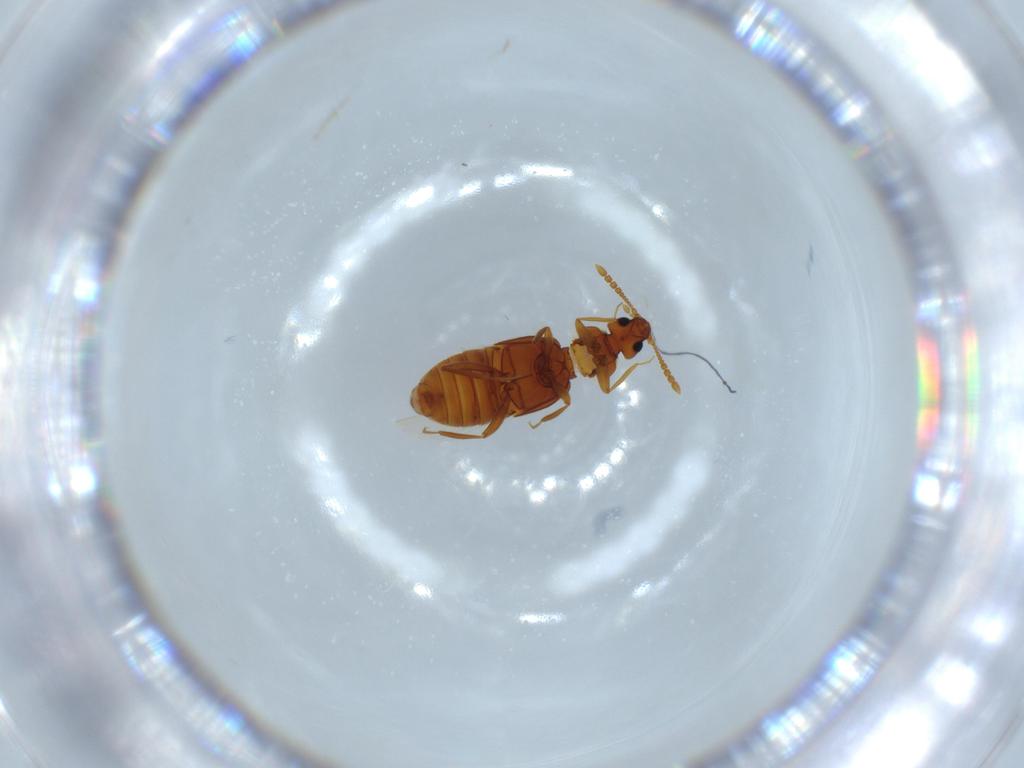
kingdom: Animalia
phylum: Arthropoda
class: Insecta
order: Coleoptera
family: Staphylinidae
